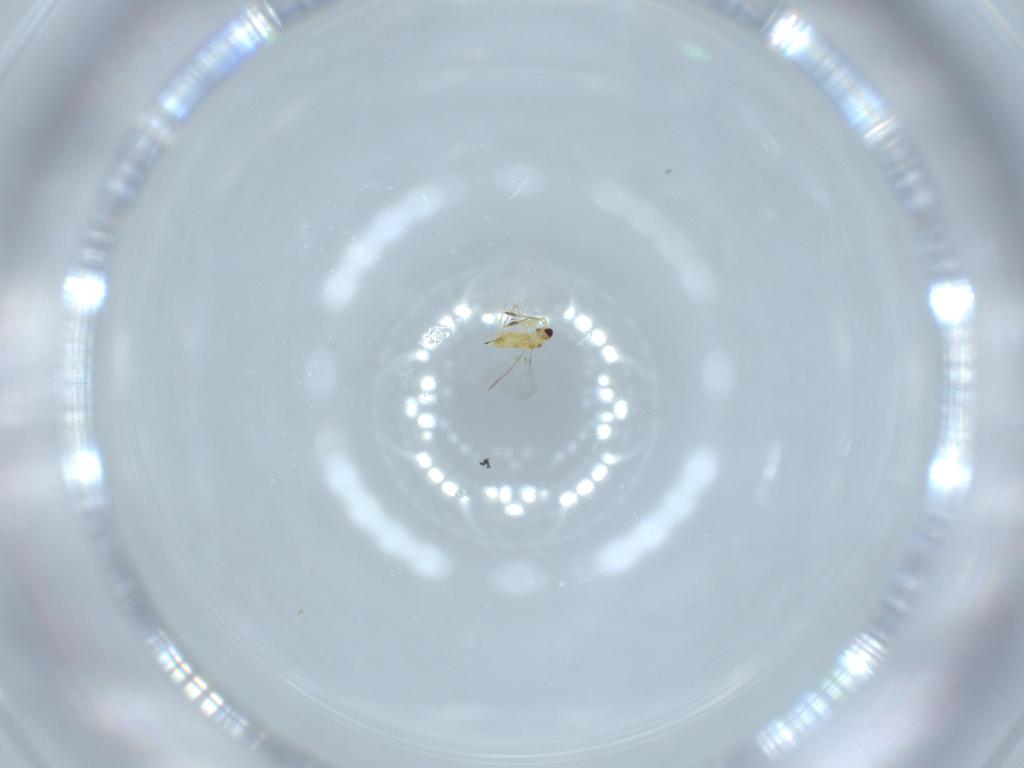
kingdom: Animalia
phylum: Arthropoda
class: Insecta
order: Hymenoptera
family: Mymaridae
